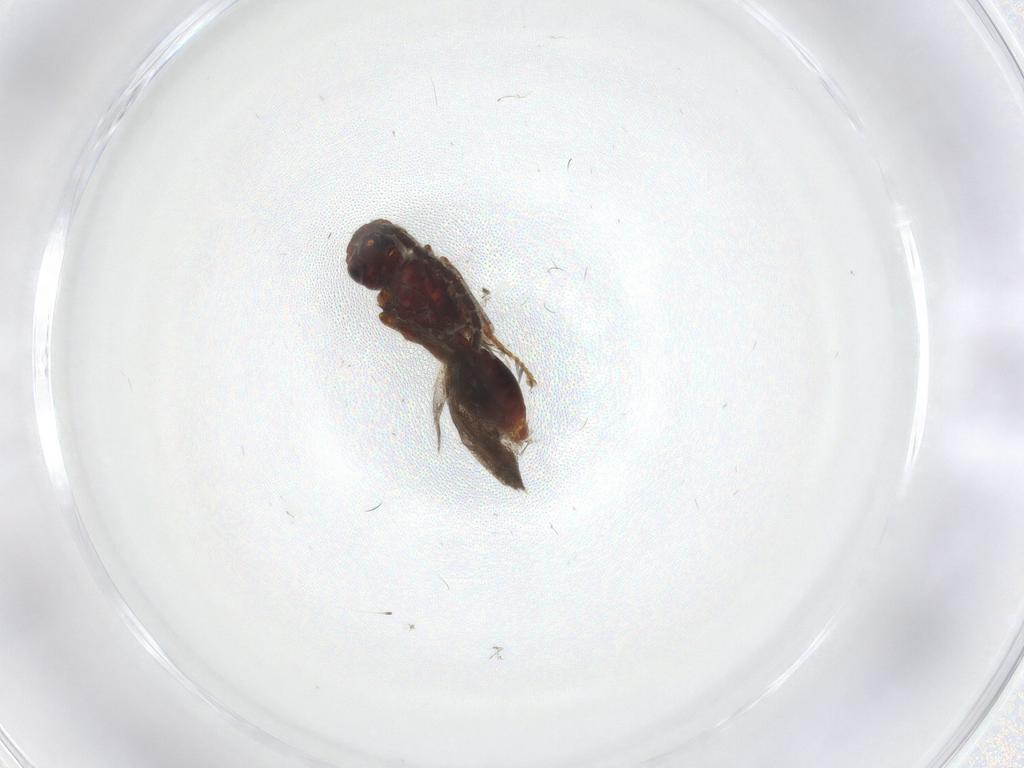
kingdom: Animalia
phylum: Arthropoda
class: Insecta
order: Hymenoptera
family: Diapriidae
